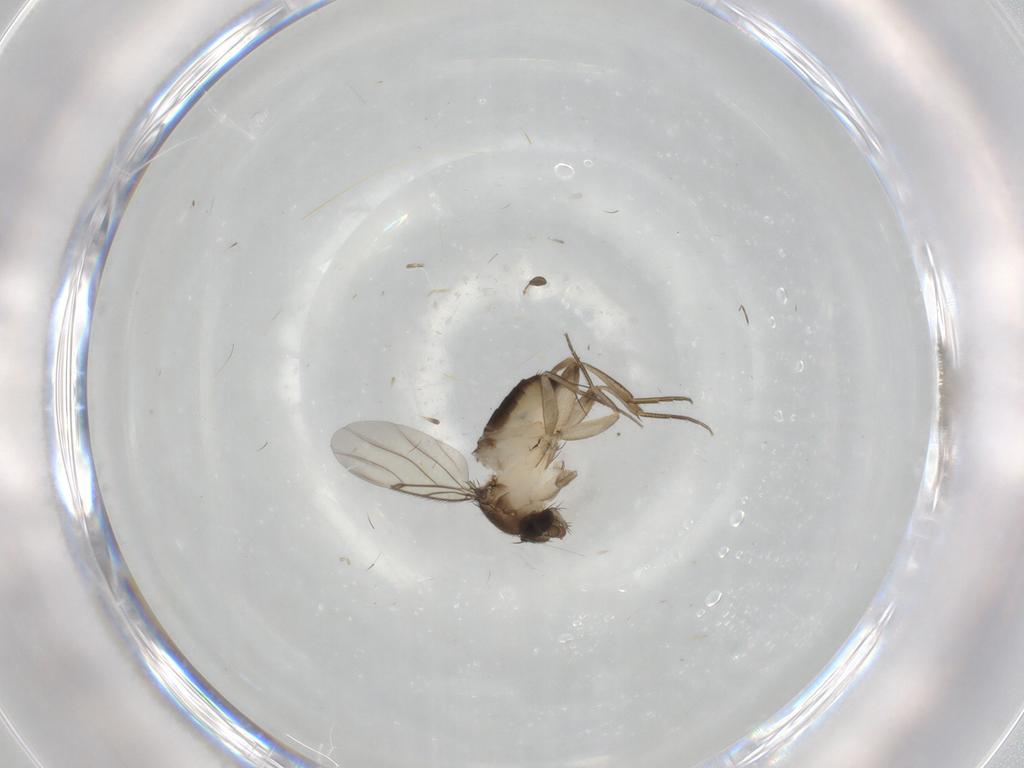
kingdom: Animalia
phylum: Arthropoda
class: Insecta
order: Diptera
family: Phoridae
